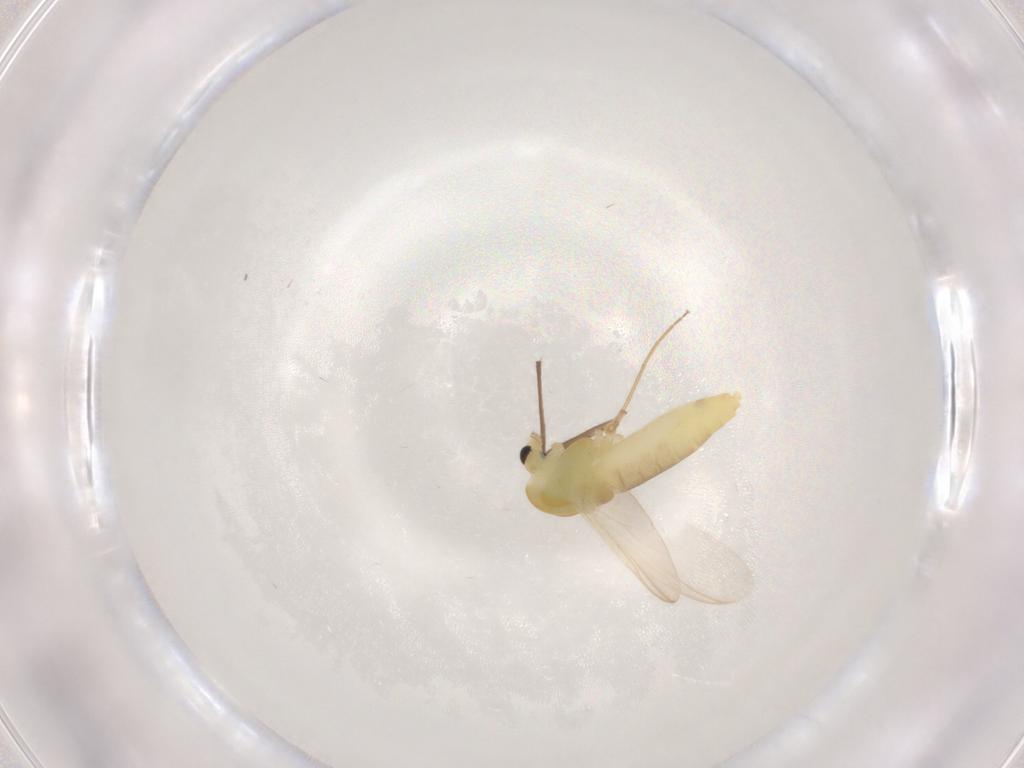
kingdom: Animalia
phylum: Arthropoda
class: Insecta
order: Diptera
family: Chironomidae
